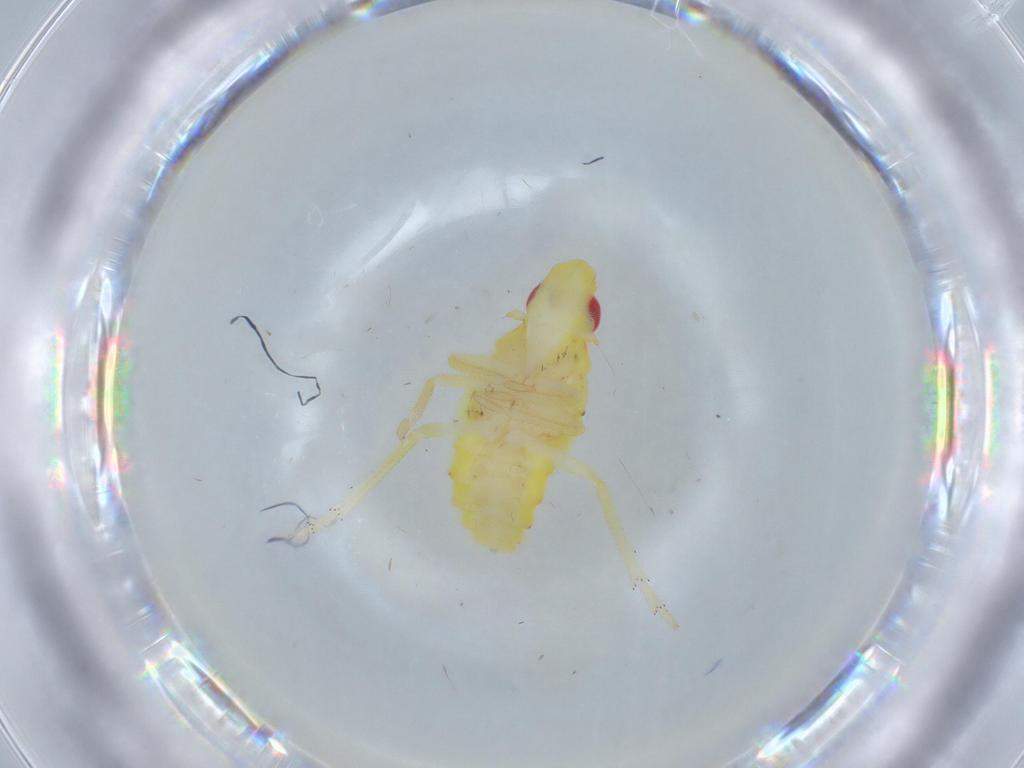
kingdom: Animalia
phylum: Arthropoda
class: Insecta
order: Hemiptera
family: Tropiduchidae
